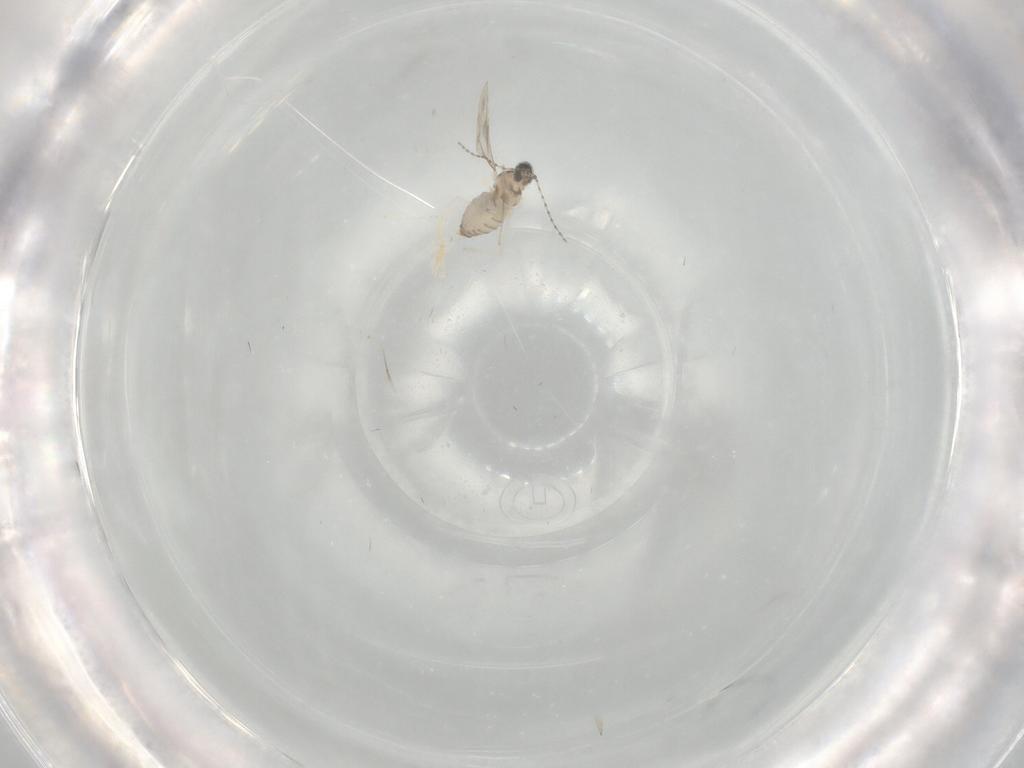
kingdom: Animalia
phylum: Arthropoda
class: Insecta
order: Diptera
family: Cecidomyiidae
